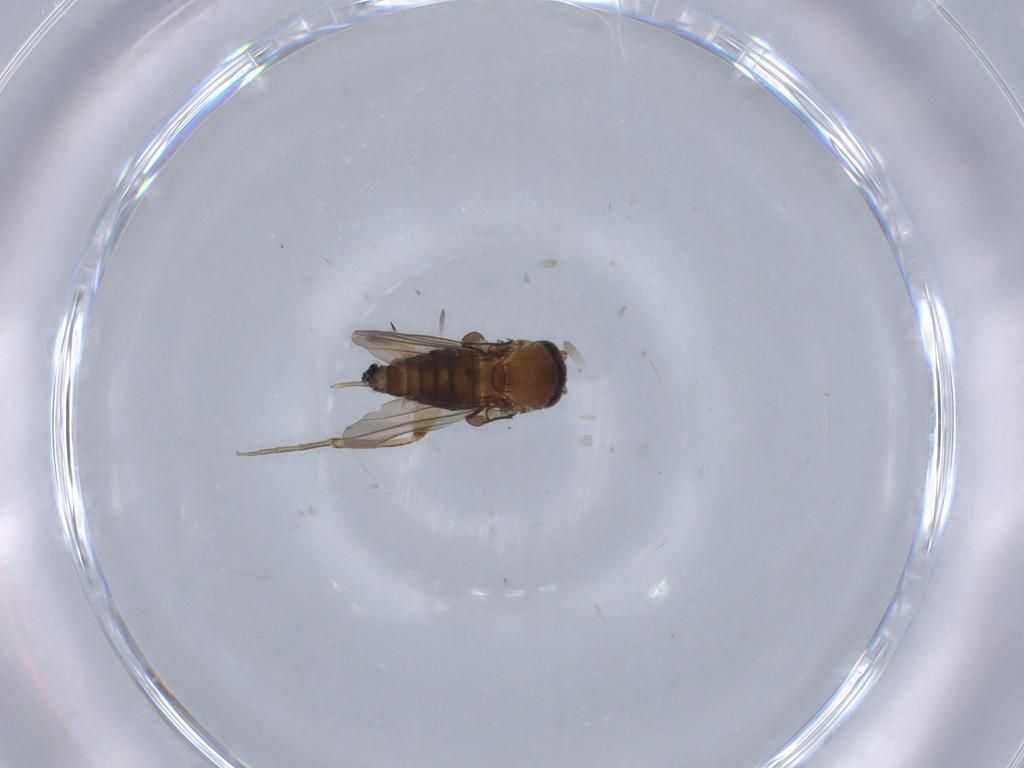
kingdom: Animalia
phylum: Arthropoda
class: Insecta
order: Diptera
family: Phoridae
